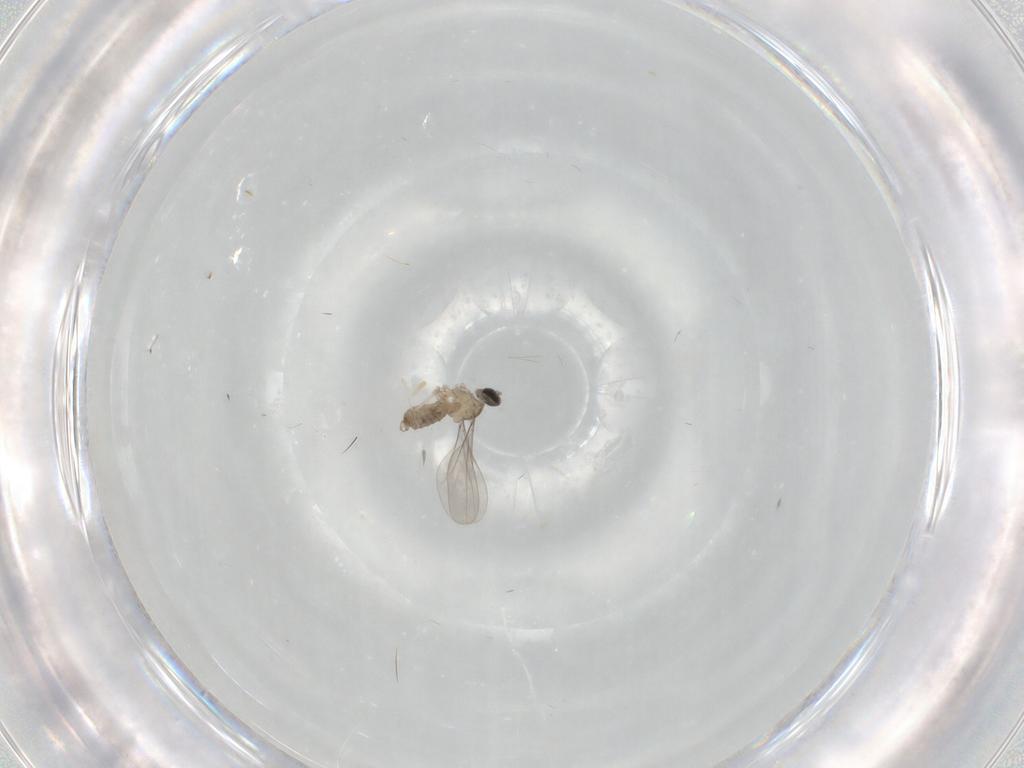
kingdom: Animalia
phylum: Arthropoda
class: Insecta
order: Diptera
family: Cecidomyiidae
